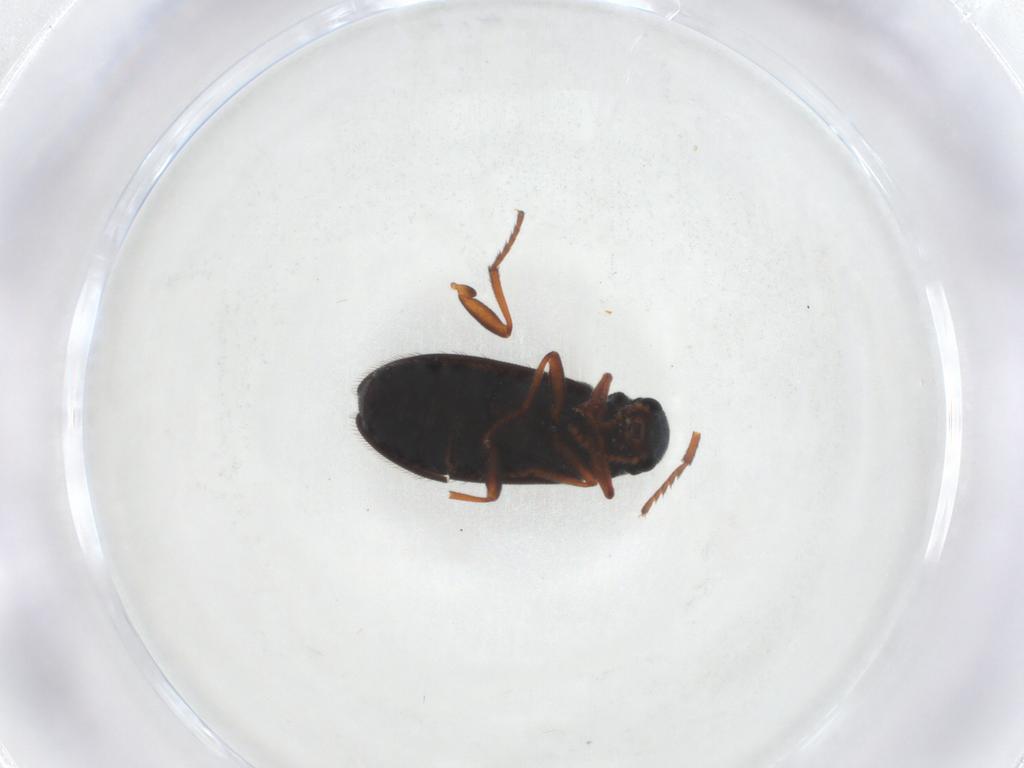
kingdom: Animalia
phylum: Arthropoda
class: Insecta
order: Coleoptera
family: Melyridae
